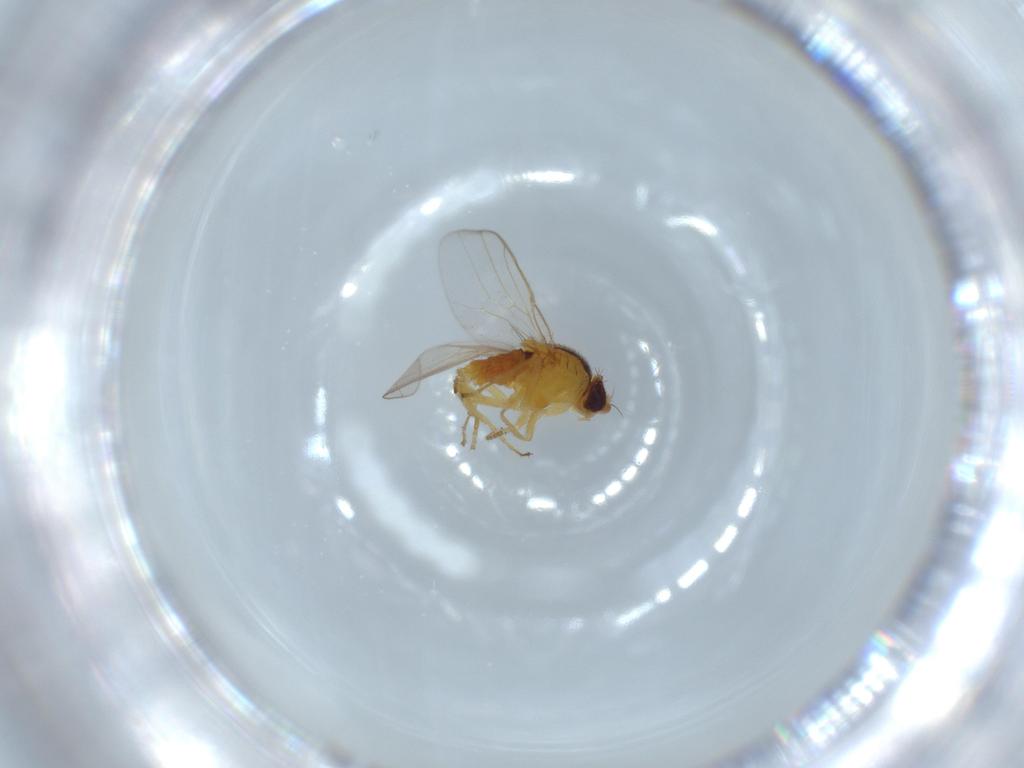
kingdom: Animalia
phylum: Arthropoda
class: Insecta
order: Diptera
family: Chloropidae
